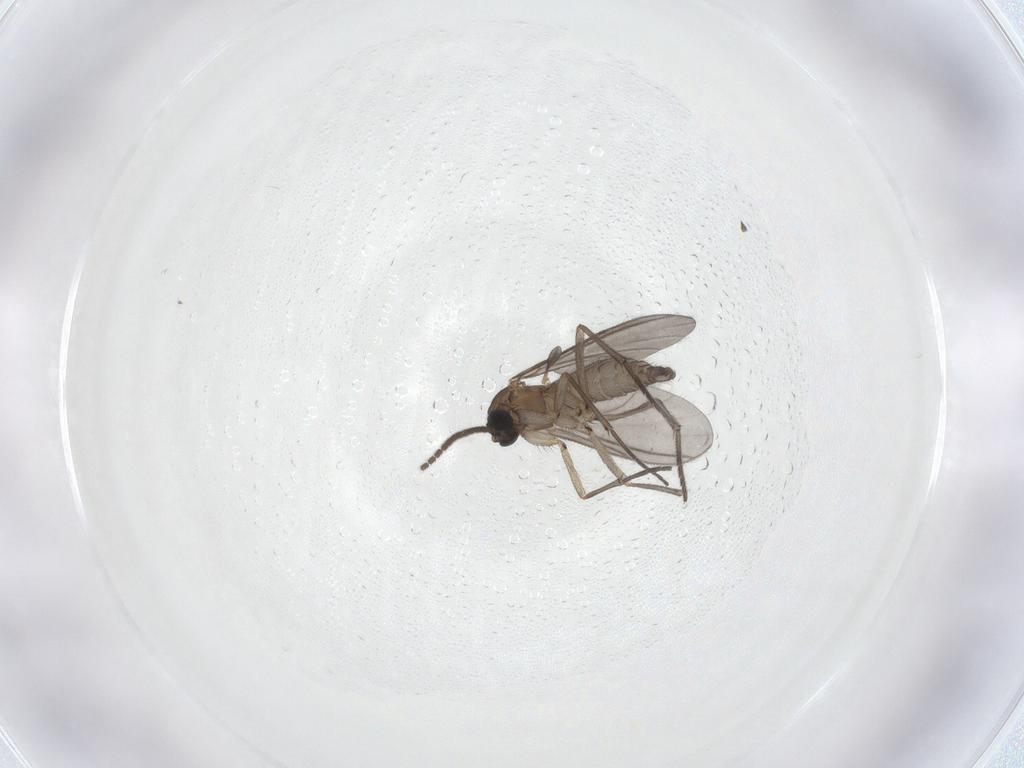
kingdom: Animalia
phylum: Arthropoda
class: Insecta
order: Diptera
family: Sciaridae
